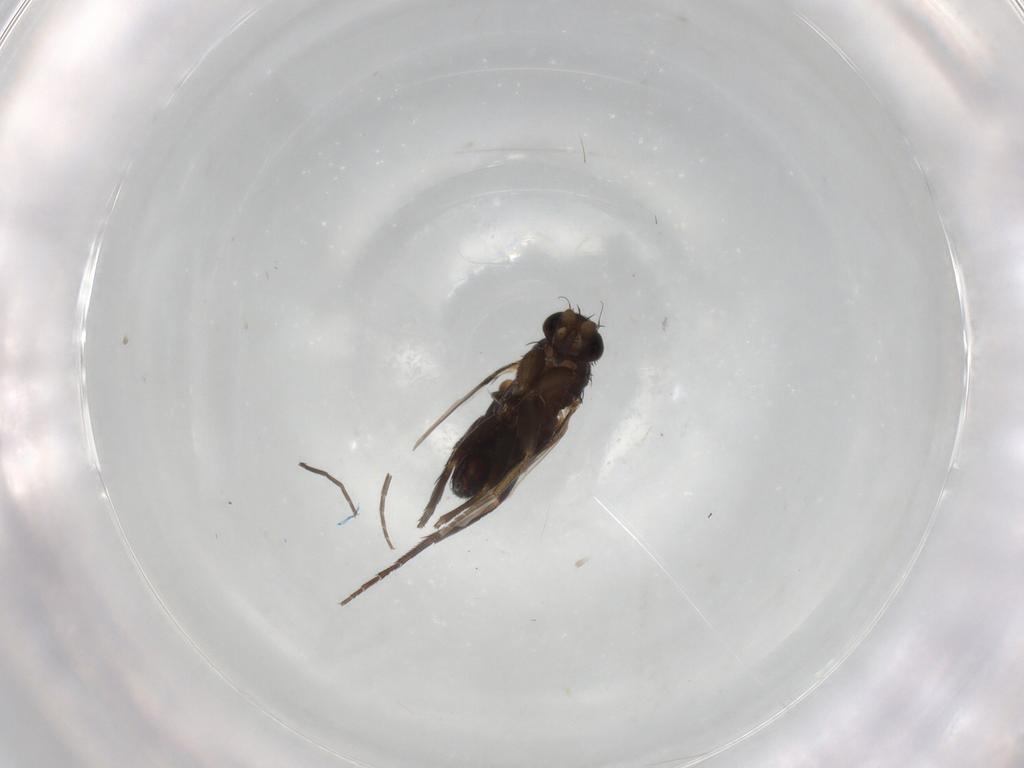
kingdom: Animalia
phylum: Arthropoda
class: Insecta
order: Diptera
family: Phoridae
